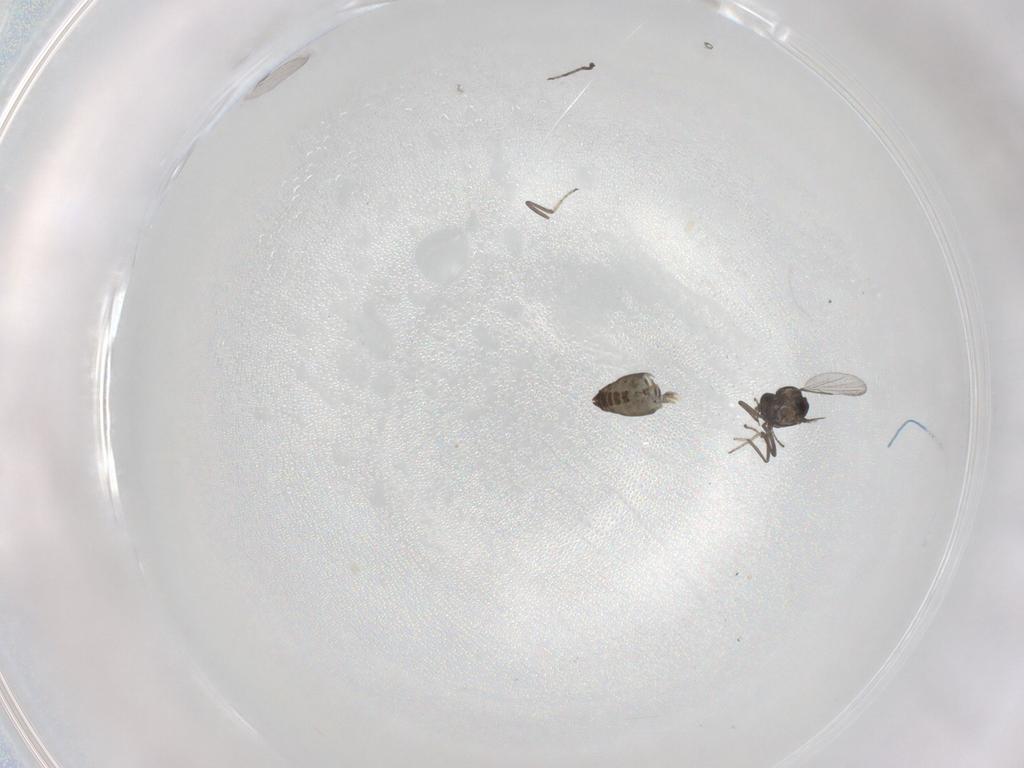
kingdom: Animalia
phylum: Arthropoda
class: Insecta
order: Diptera
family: Ceratopogonidae
